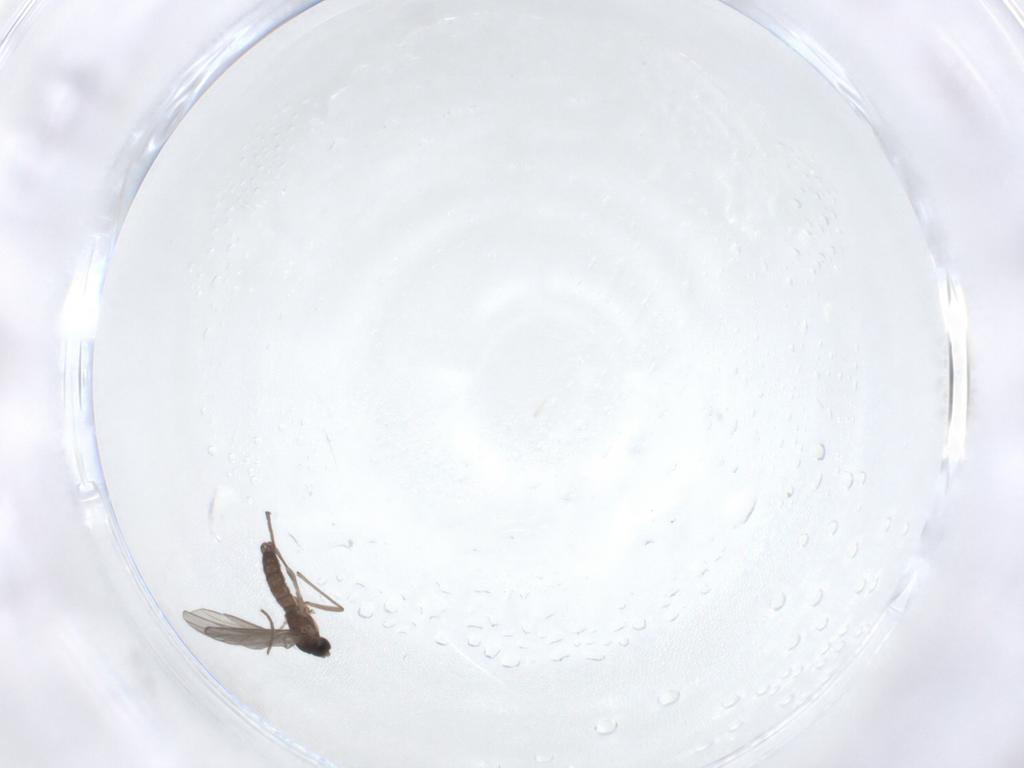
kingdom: Animalia
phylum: Arthropoda
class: Insecta
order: Diptera
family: Sciaridae
